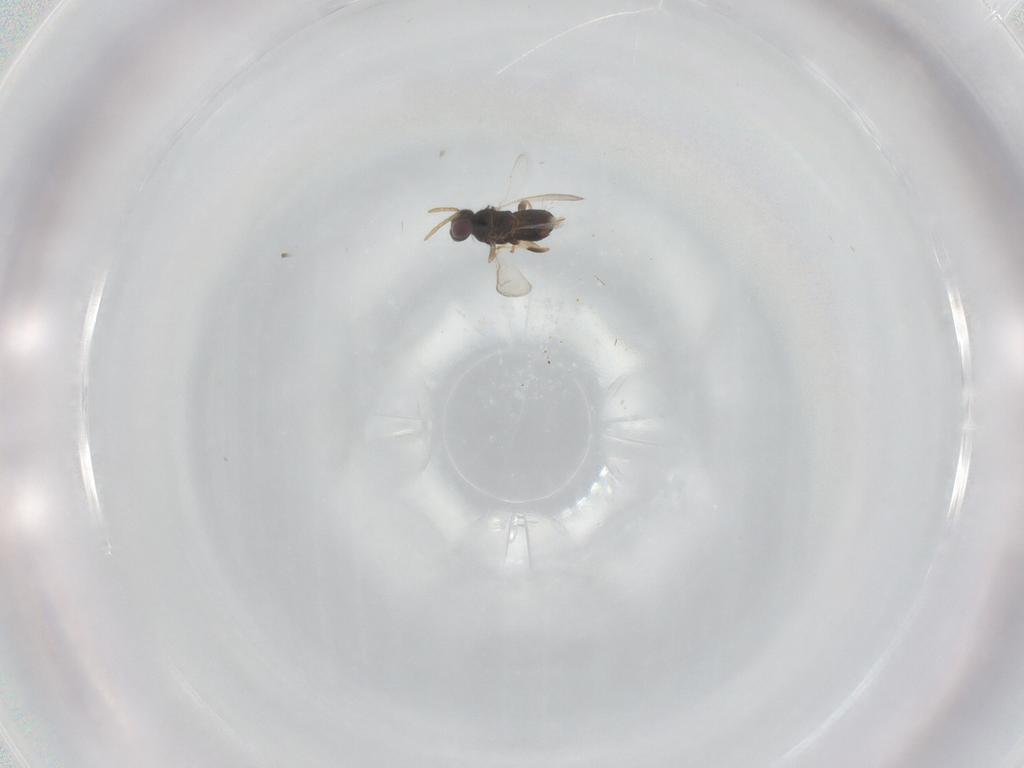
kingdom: Animalia
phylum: Arthropoda
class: Insecta
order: Hymenoptera
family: Aphelinidae
